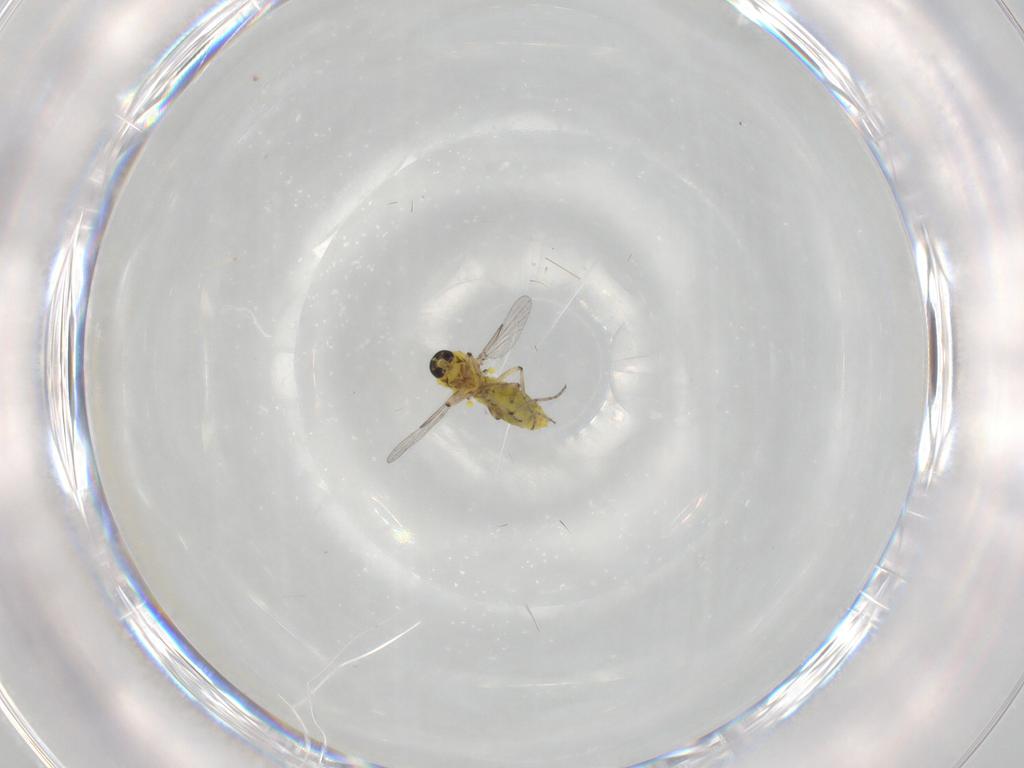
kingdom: Animalia
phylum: Arthropoda
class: Insecta
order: Diptera
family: Ceratopogonidae
